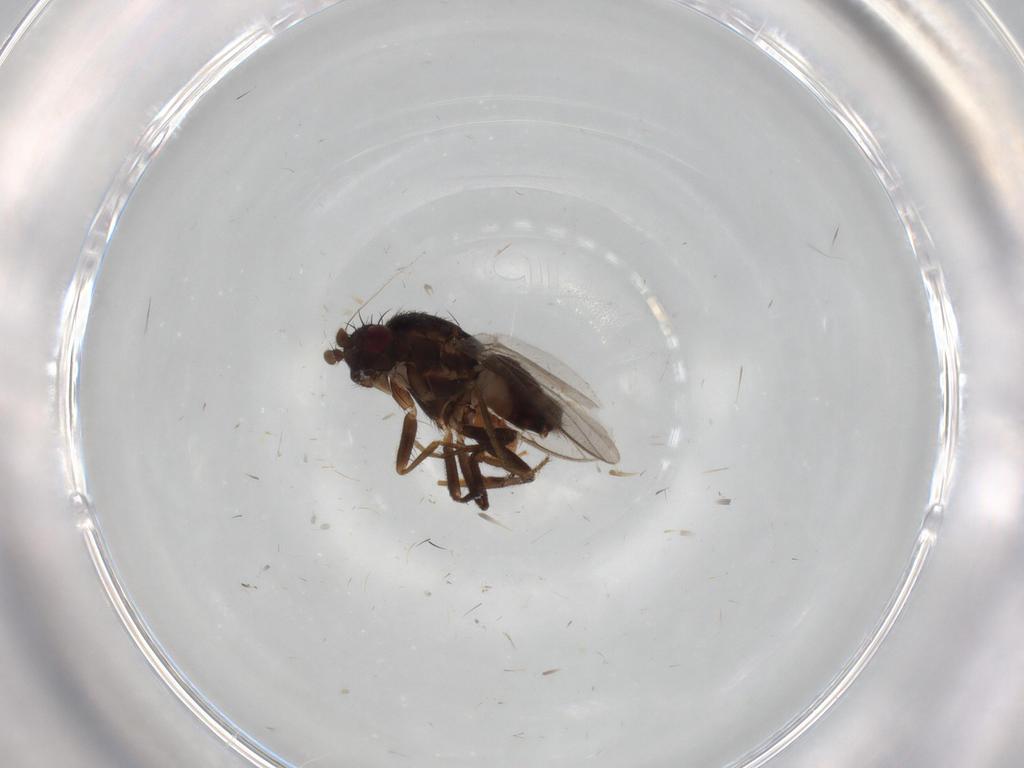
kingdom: Animalia
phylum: Arthropoda
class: Insecta
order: Diptera
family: Sphaeroceridae
